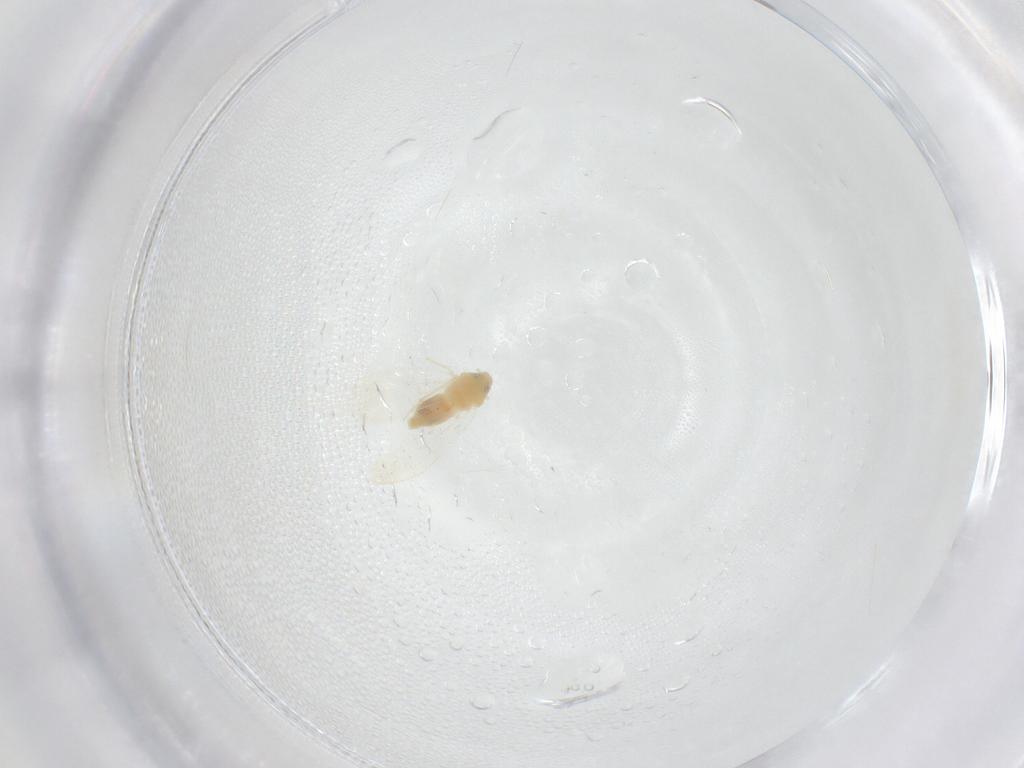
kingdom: Animalia
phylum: Arthropoda
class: Insecta
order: Hemiptera
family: Aleyrodidae
